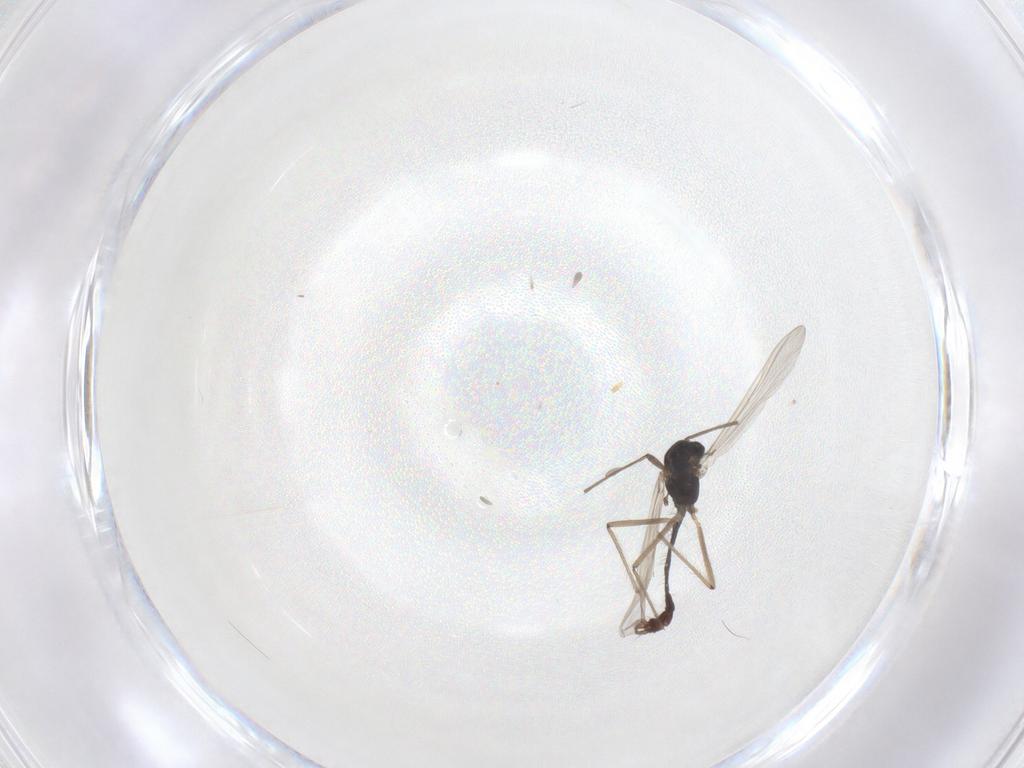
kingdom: Animalia
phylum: Arthropoda
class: Insecta
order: Diptera
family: Chironomidae
